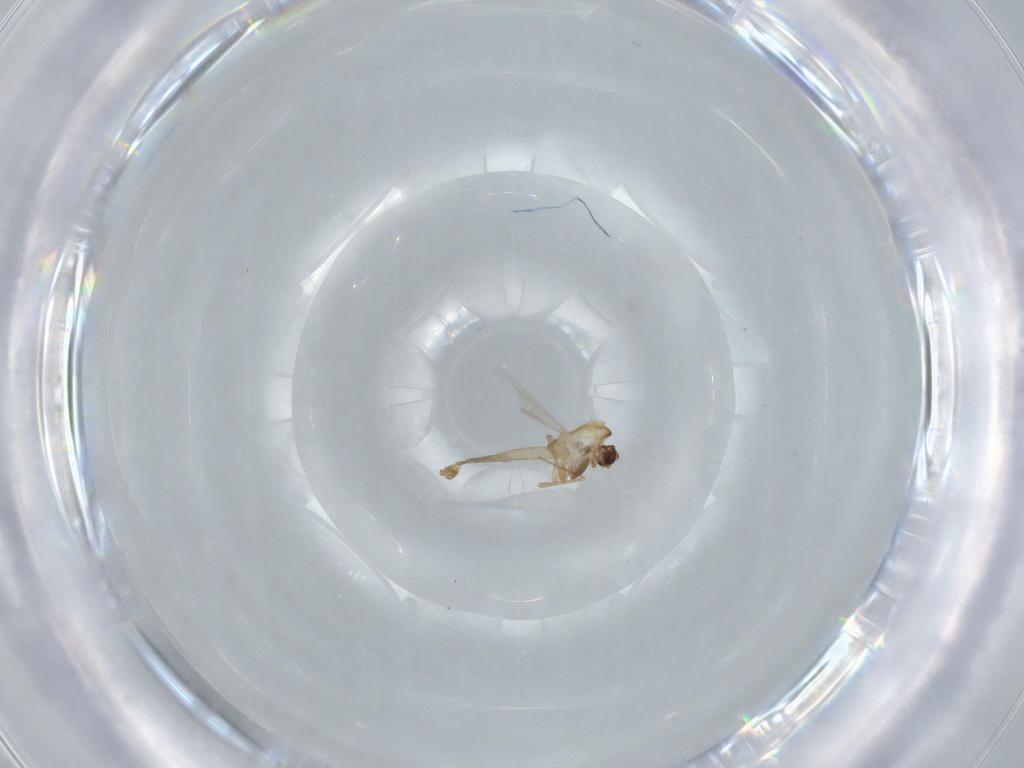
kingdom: Animalia
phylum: Arthropoda
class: Insecta
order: Diptera
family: Chironomidae
